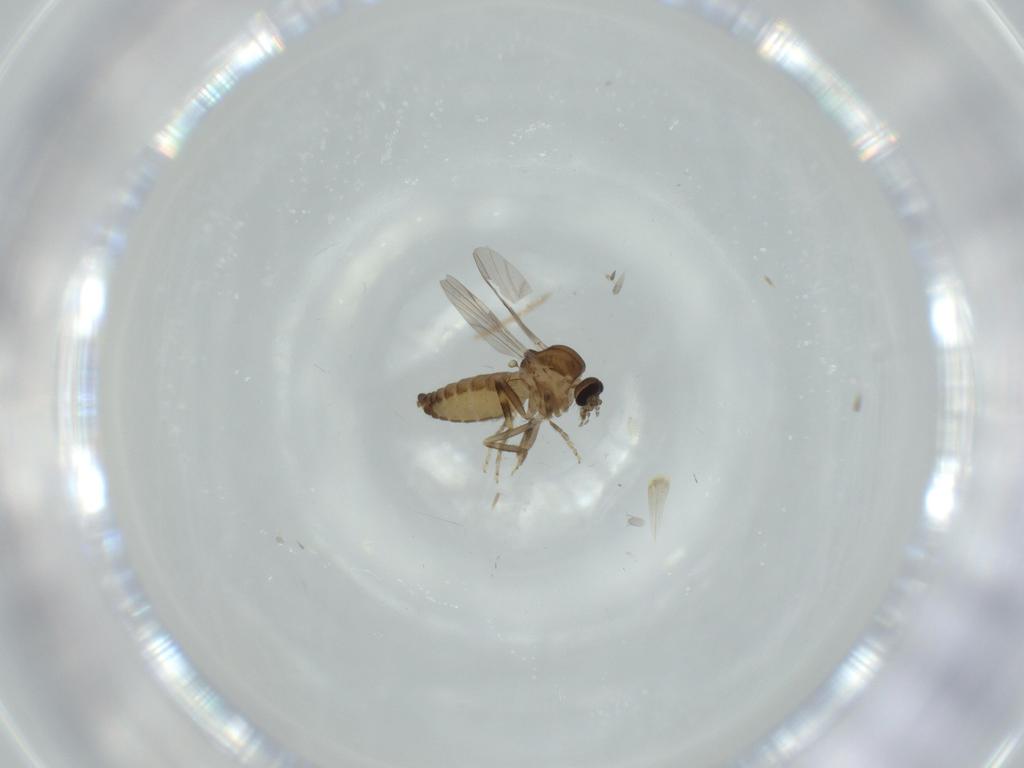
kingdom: Animalia
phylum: Arthropoda
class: Insecta
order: Diptera
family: Ceratopogonidae
